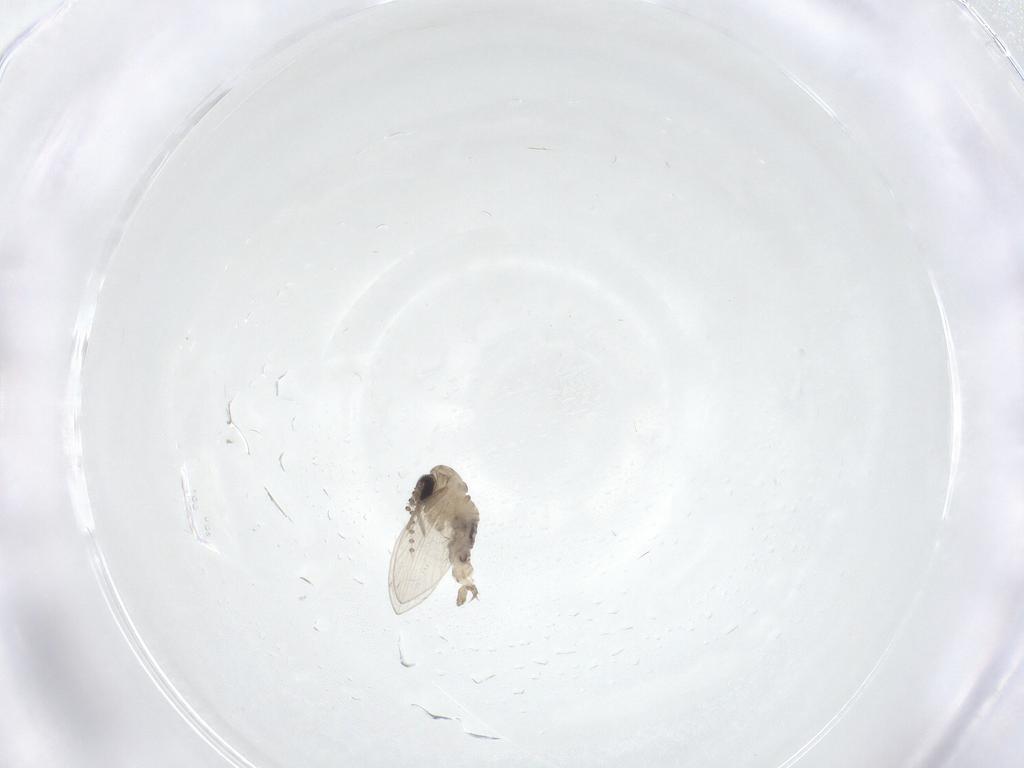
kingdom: Animalia
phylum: Arthropoda
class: Insecta
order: Diptera
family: Psychodidae
